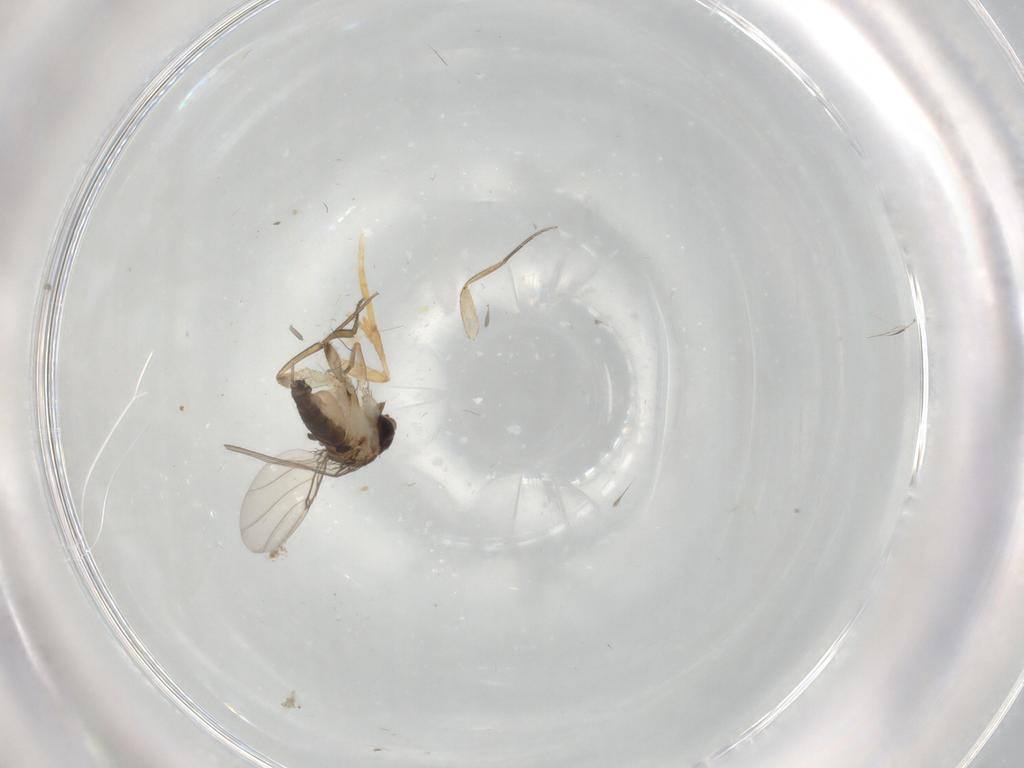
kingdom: Animalia
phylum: Arthropoda
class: Insecta
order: Diptera
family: Phoridae
